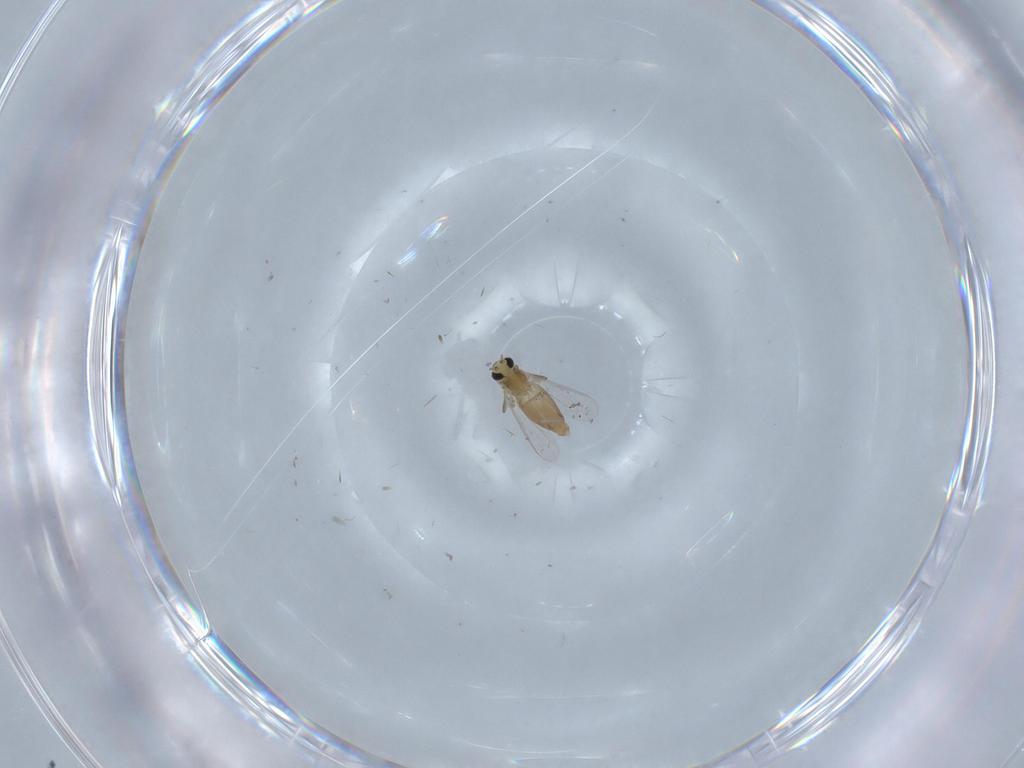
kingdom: Animalia
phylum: Arthropoda
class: Insecta
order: Diptera
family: Chironomidae
